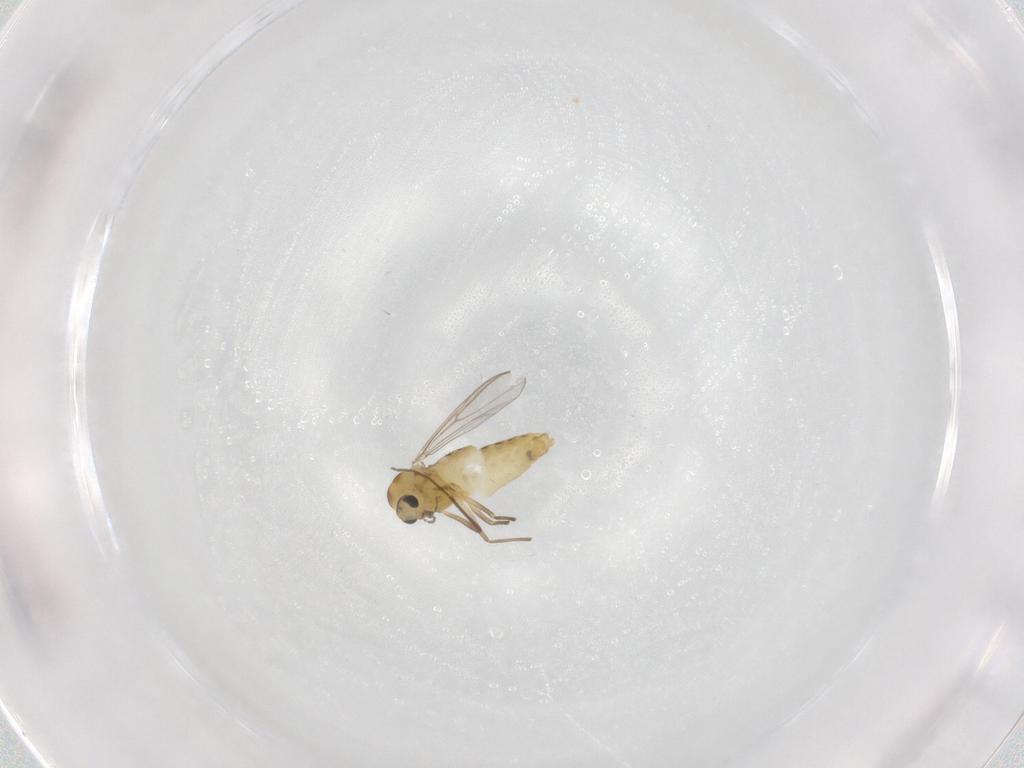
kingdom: Animalia
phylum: Arthropoda
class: Insecta
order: Diptera
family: Chironomidae
